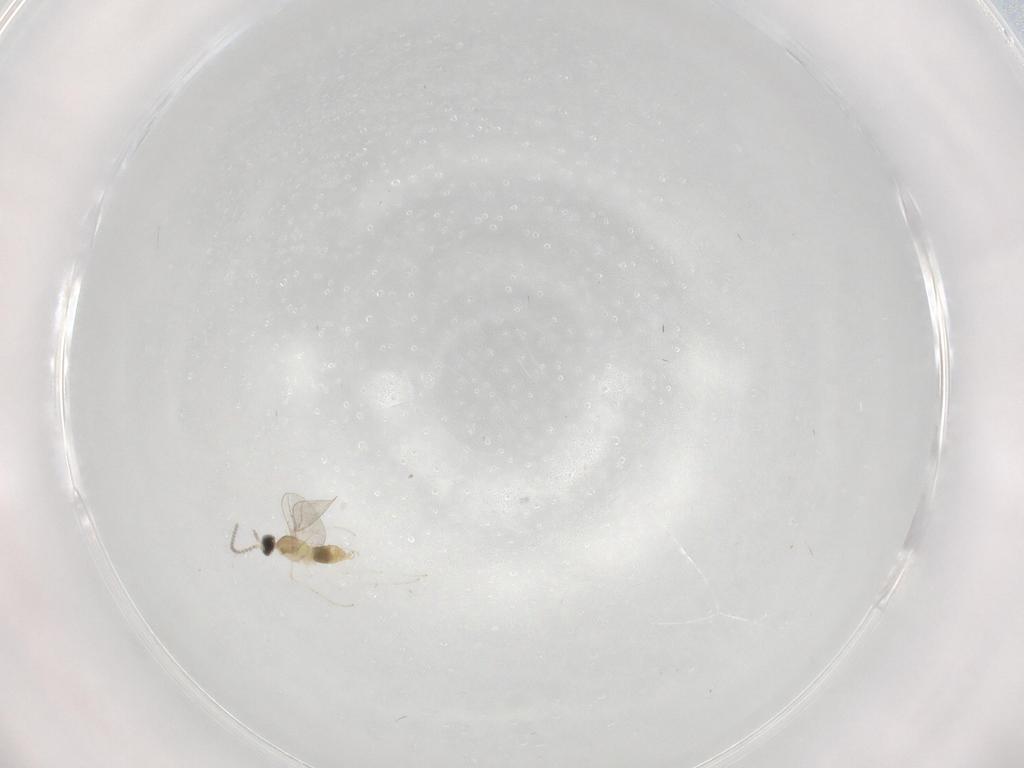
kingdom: Animalia
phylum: Arthropoda
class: Insecta
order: Diptera
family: Cecidomyiidae
